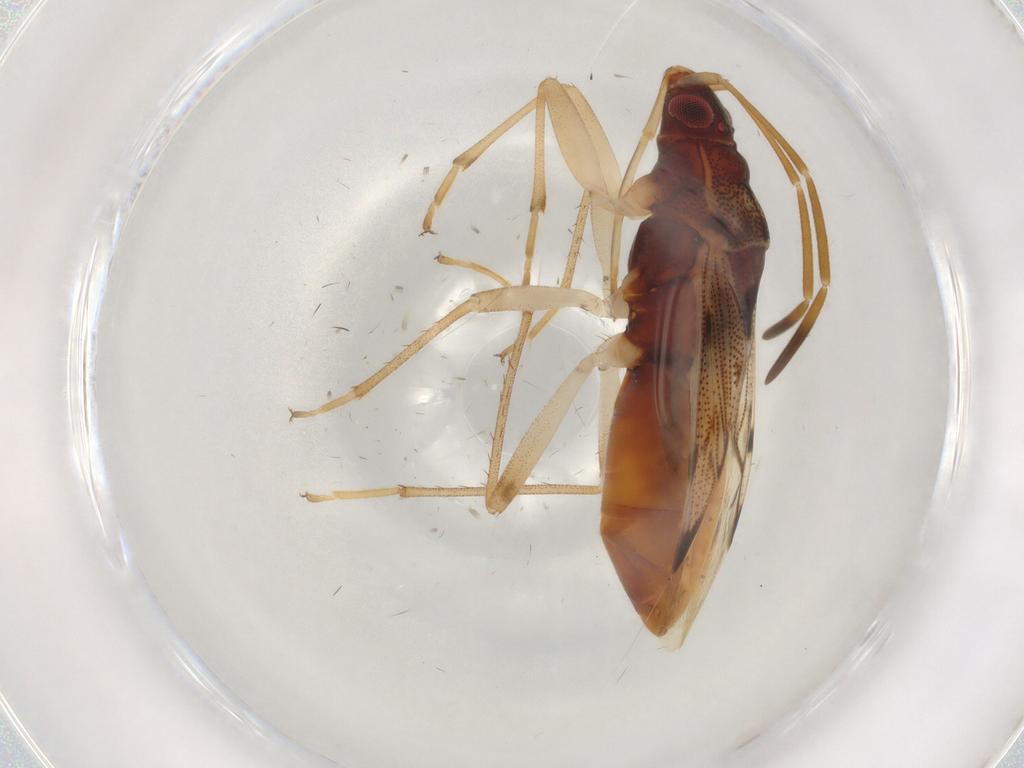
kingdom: Animalia
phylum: Arthropoda
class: Insecta
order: Hemiptera
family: Rhyparochromidae
